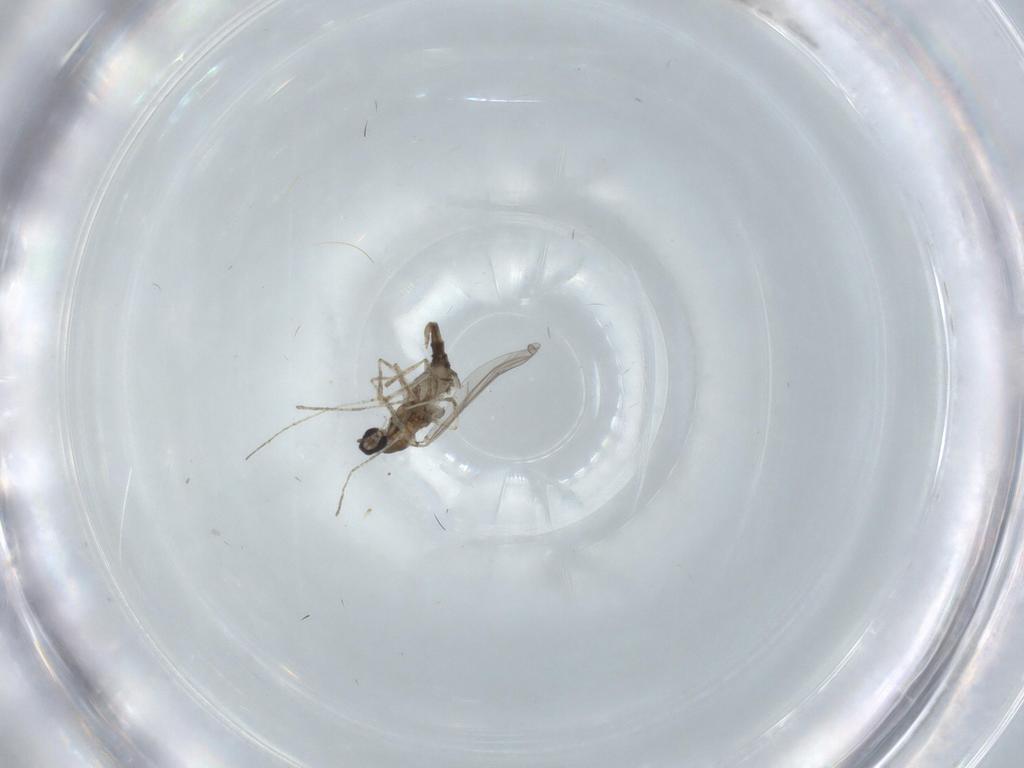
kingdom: Animalia
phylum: Arthropoda
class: Insecta
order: Diptera
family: Cecidomyiidae
